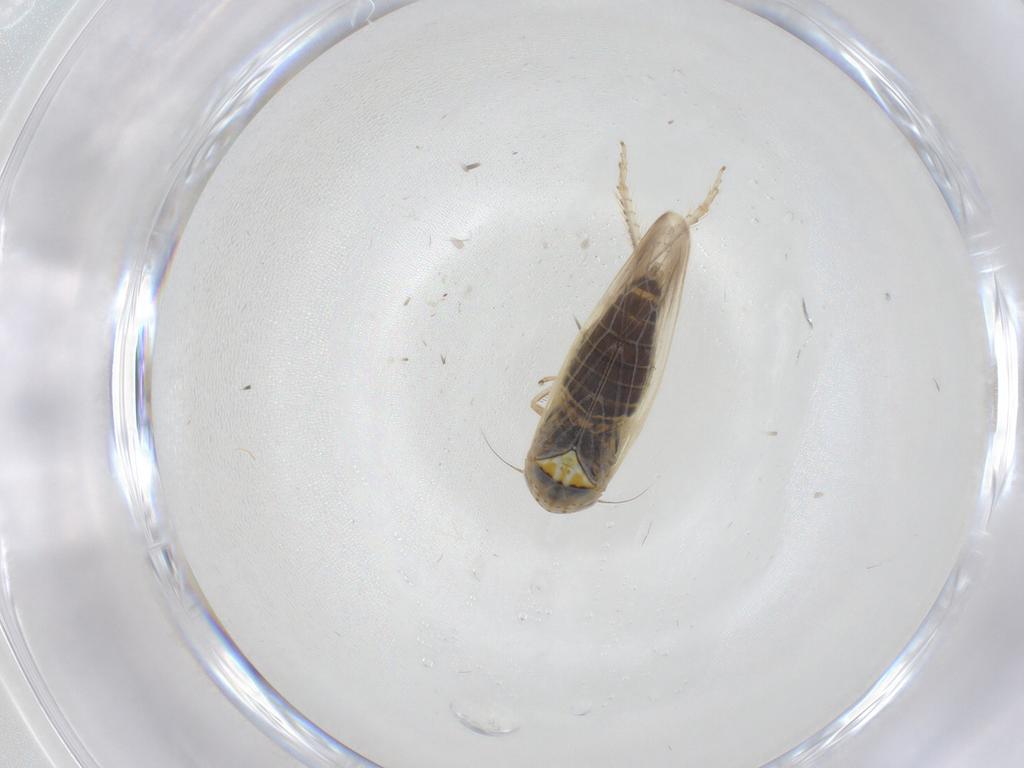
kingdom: Animalia
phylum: Arthropoda
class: Insecta
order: Hemiptera
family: Cicadellidae
